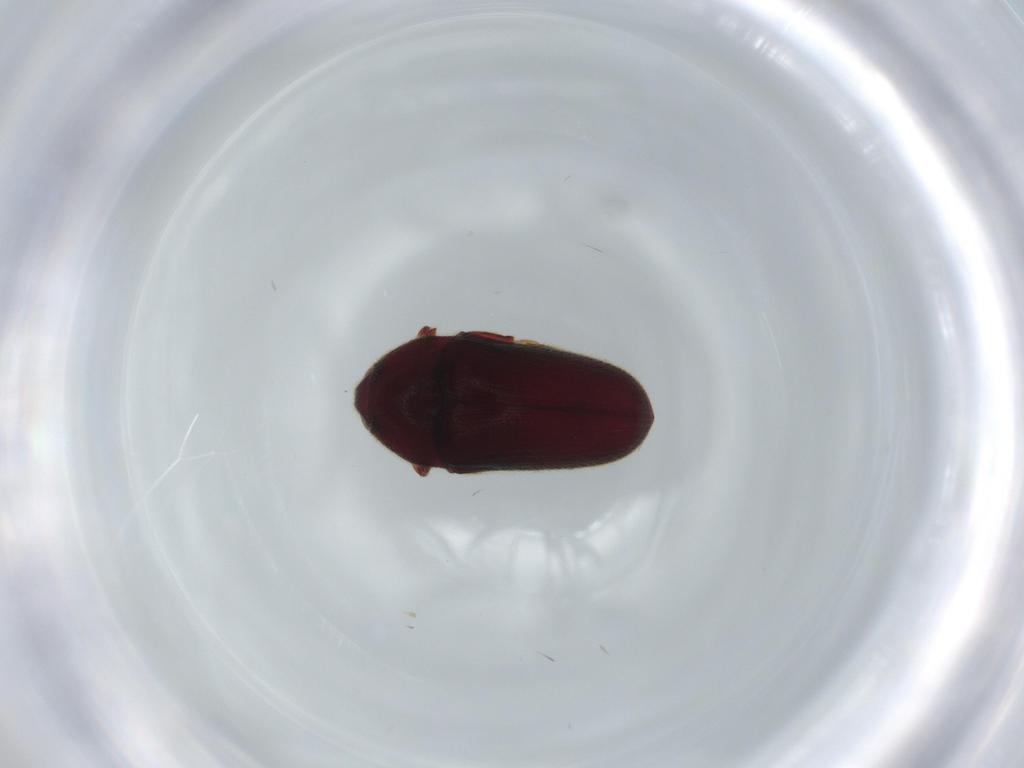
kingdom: Animalia
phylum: Arthropoda
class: Insecta
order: Coleoptera
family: Throscidae
